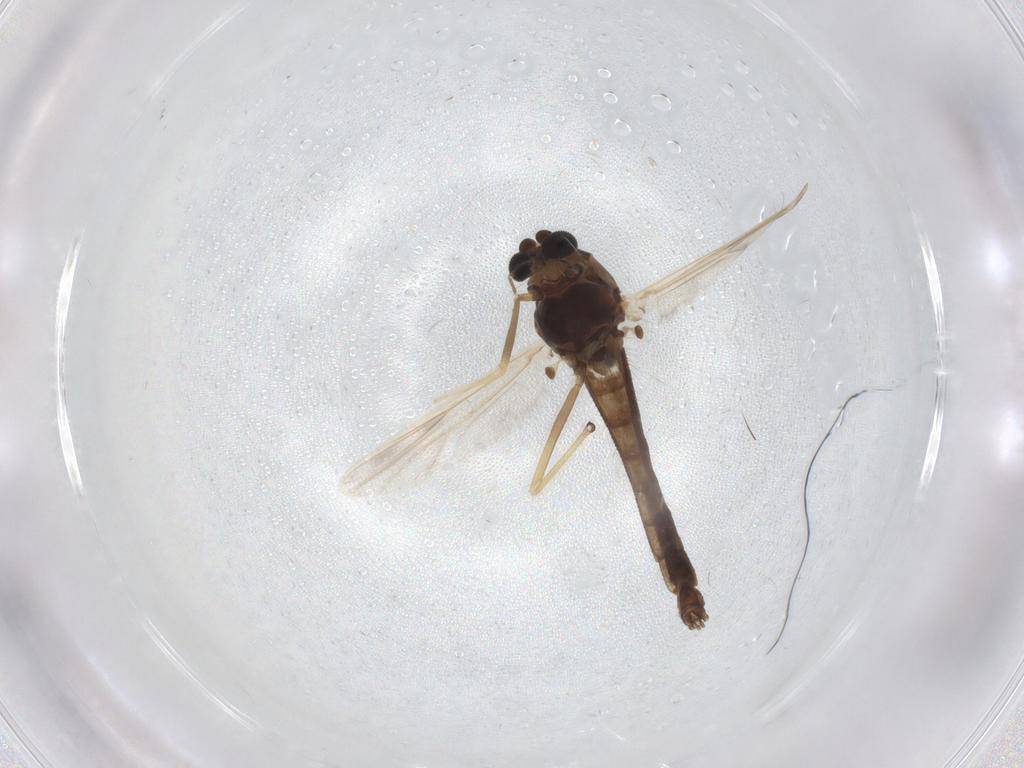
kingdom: Animalia
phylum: Arthropoda
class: Insecta
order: Diptera
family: Chironomidae
